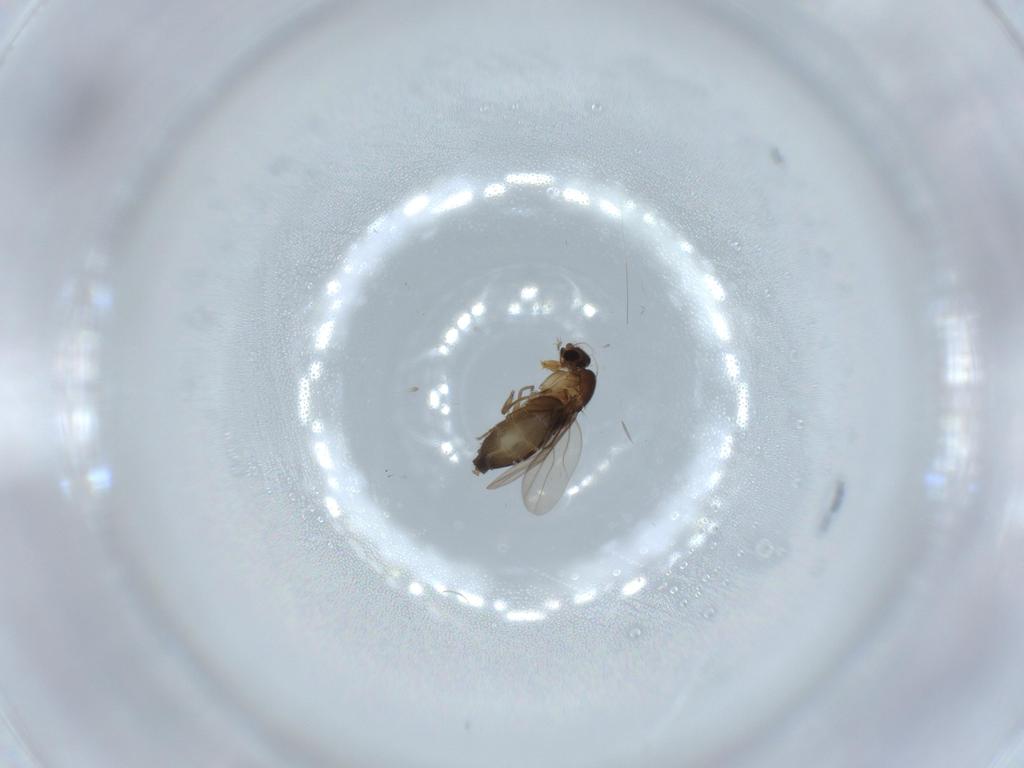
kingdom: Animalia
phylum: Arthropoda
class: Insecta
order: Diptera
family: Phoridae
